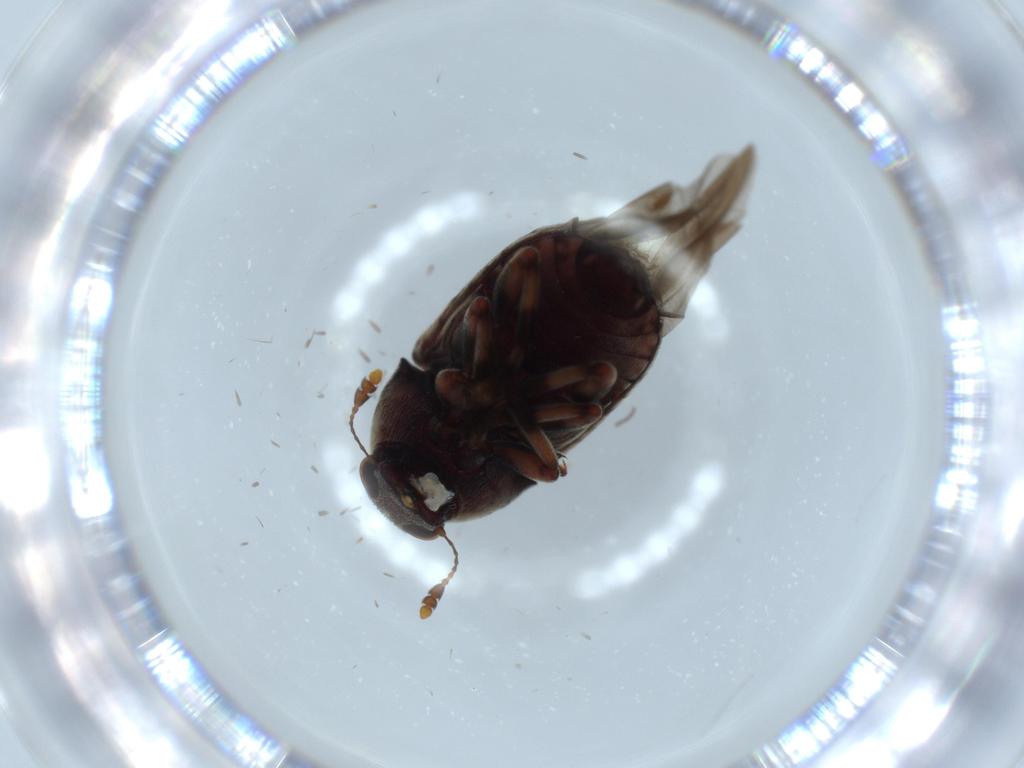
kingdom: Animalia
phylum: Arthropoda
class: Insecta
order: Coleoptera
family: Anthribidae
